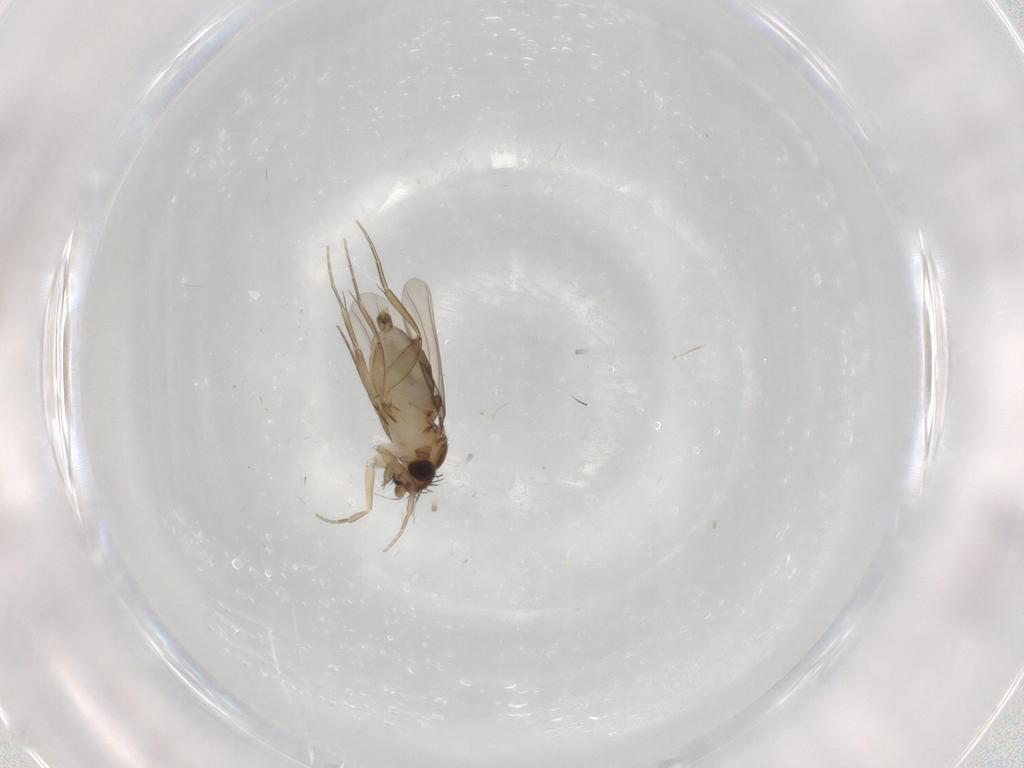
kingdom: Animalia
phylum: Arthropoda
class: Insecta
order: Diptera
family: Phoridae
